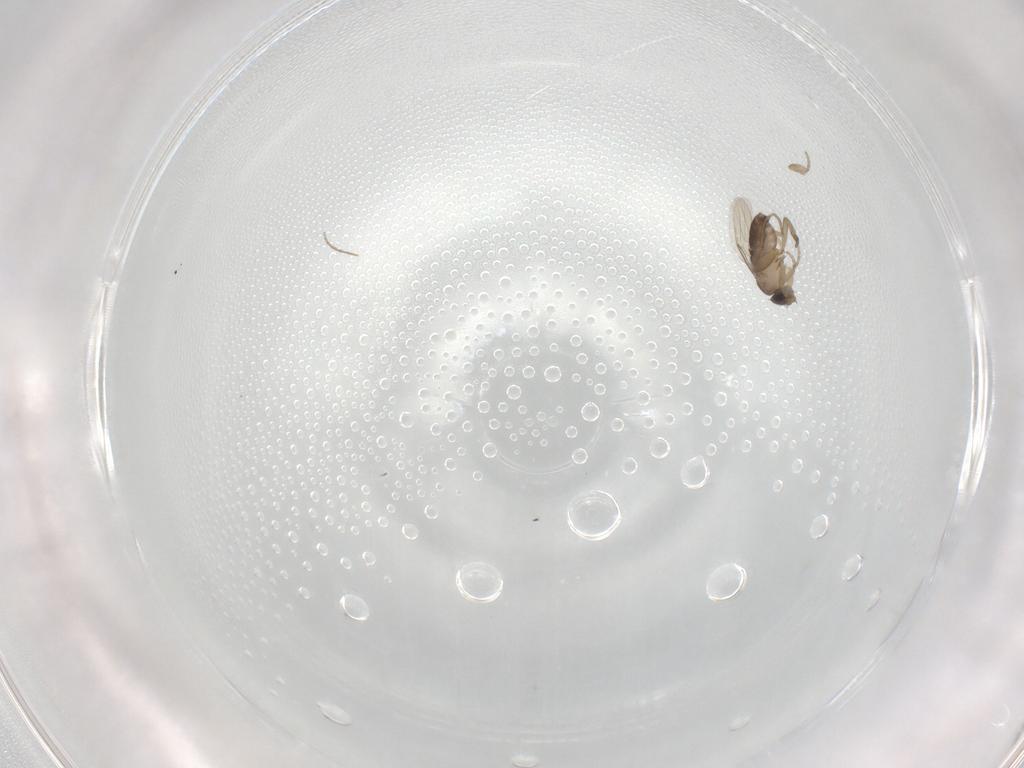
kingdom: Animalia
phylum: Arthropoda
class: Insecta
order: Diptera
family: Phoridae
